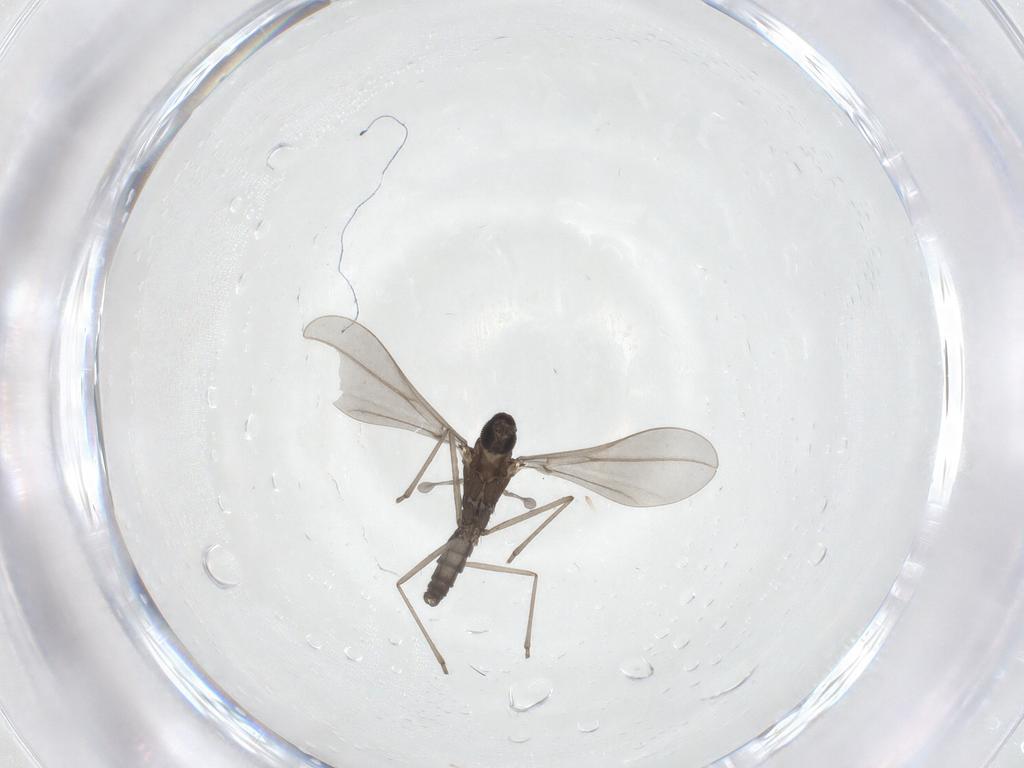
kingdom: Animalia
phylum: Arthropoda
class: Insecta
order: Diptera
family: Cecidomyiidae
